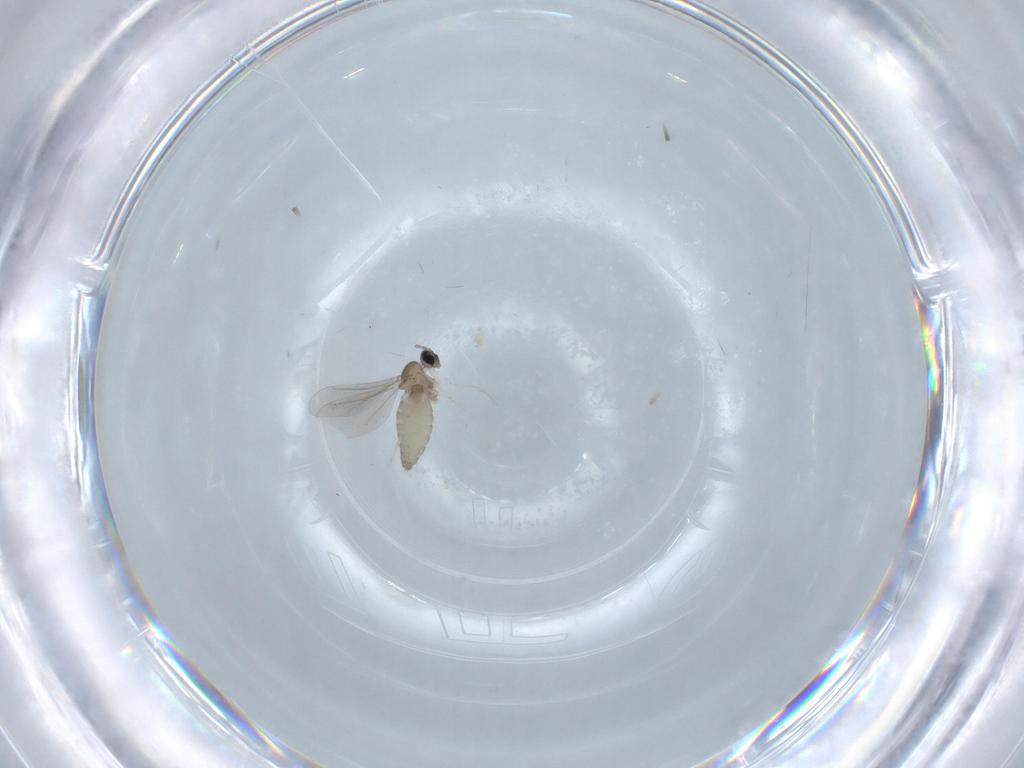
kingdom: Animalia
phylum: Arthropoda
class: Insecta
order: Diptera
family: Cecidomyiidae
